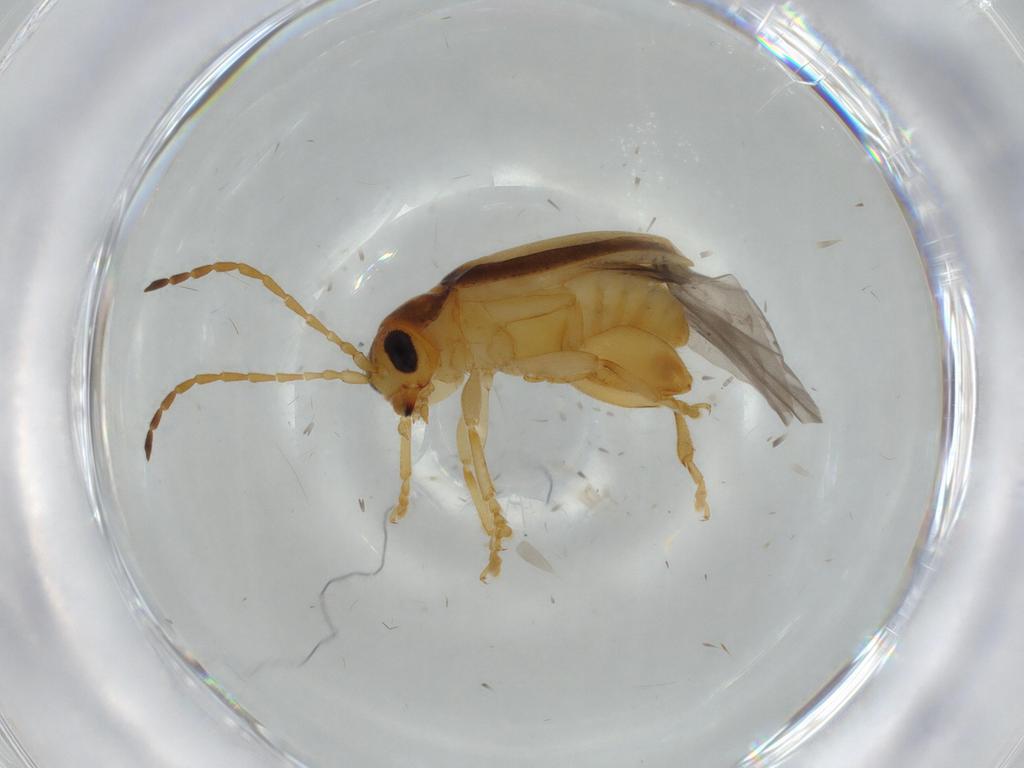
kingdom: Animalia
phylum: Arthropoda
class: Insecta
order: Coleoptera
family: Chrysomelidae
